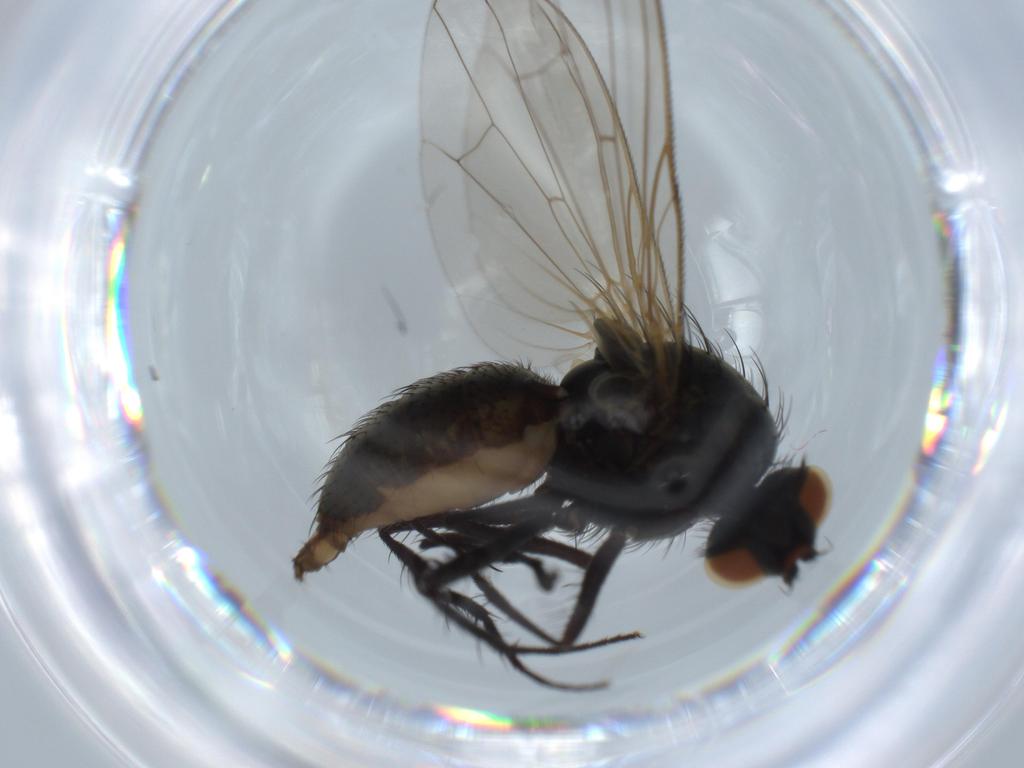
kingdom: Animalia
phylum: Arthropoda
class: Insecta
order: Diptera
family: Anthomyiidae
